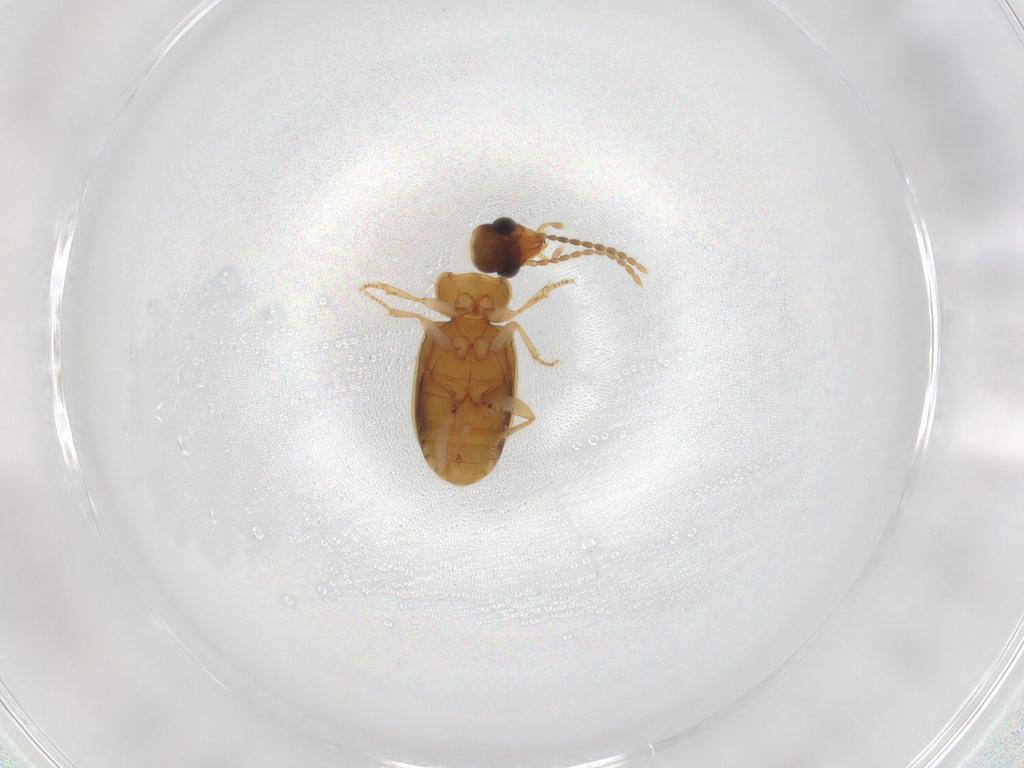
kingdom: Animalia
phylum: Arthropoda
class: Insecta
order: Coleoptera
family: Carabidae
